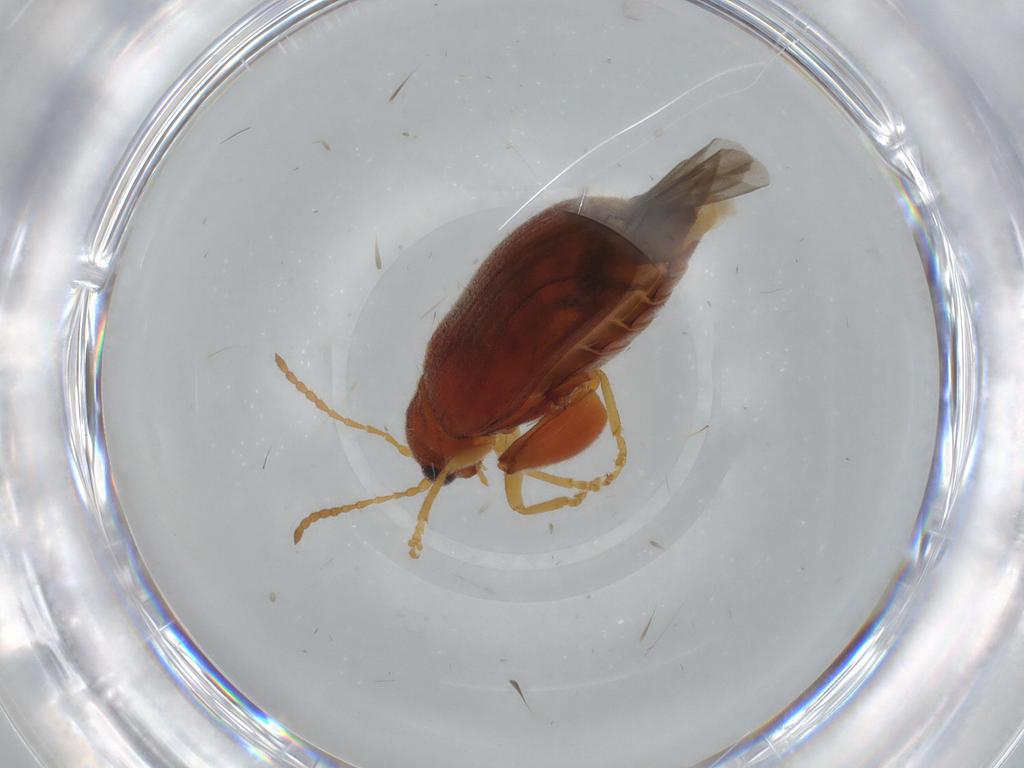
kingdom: Animalia
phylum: Arthropoda
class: Insecta
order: Coleoptera
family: Chrysomelidae
